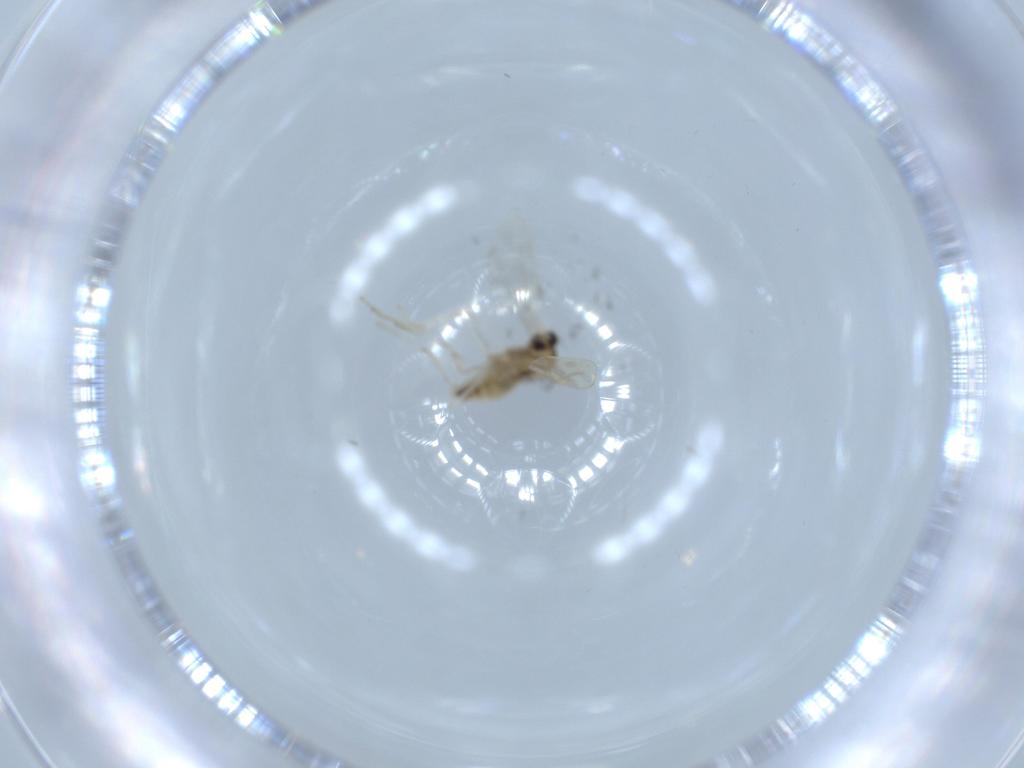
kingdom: Animalia
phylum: Arthropoda
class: Insecta
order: Diptera
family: Cecidomyiidae
